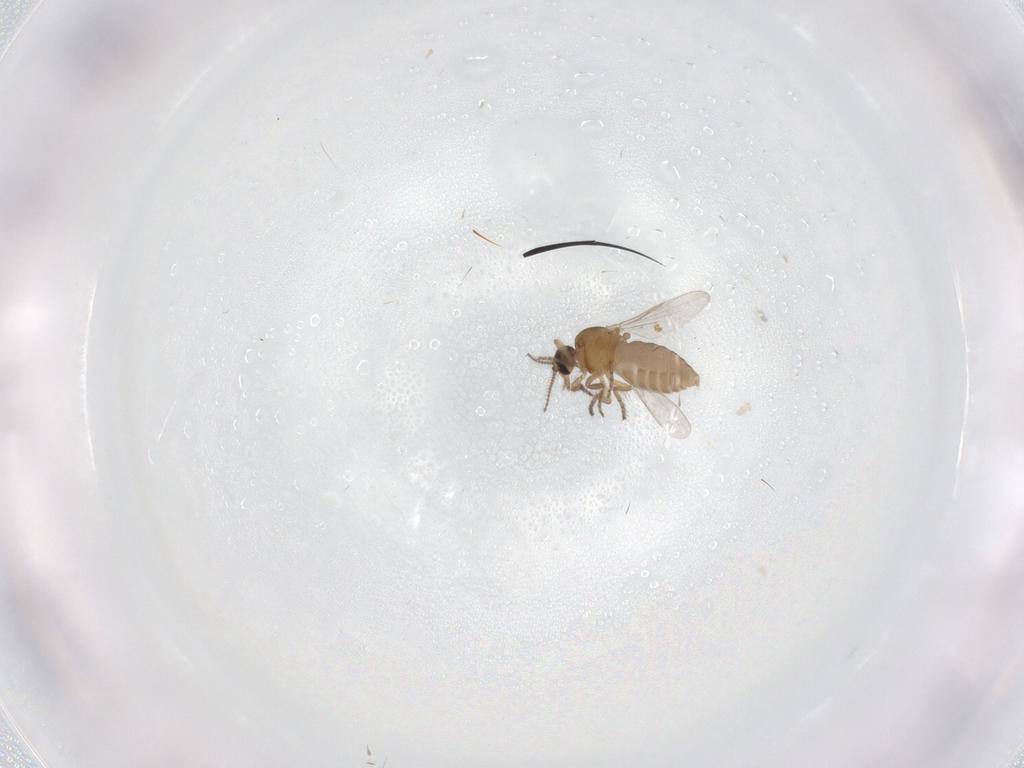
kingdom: Animalia
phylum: Arthropoda
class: Insecta
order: Diptera
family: Ceratopogonidae
